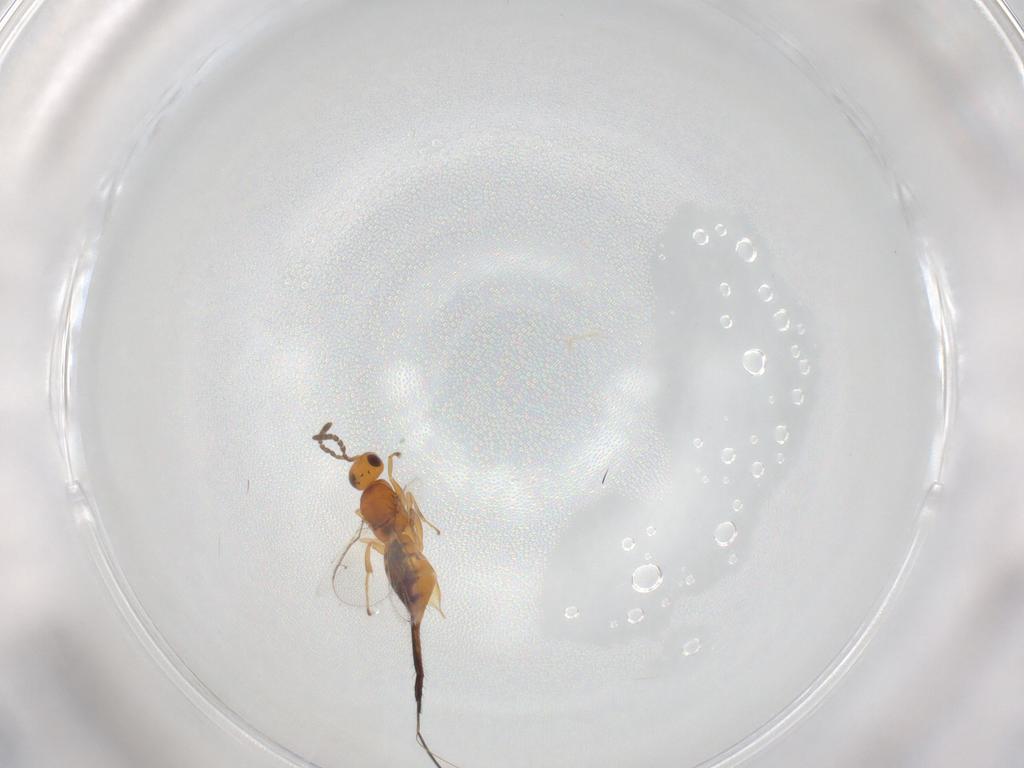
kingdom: Animalia
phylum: Arthropoda
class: Insecta
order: Hymenoptera
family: Pteromalidae
